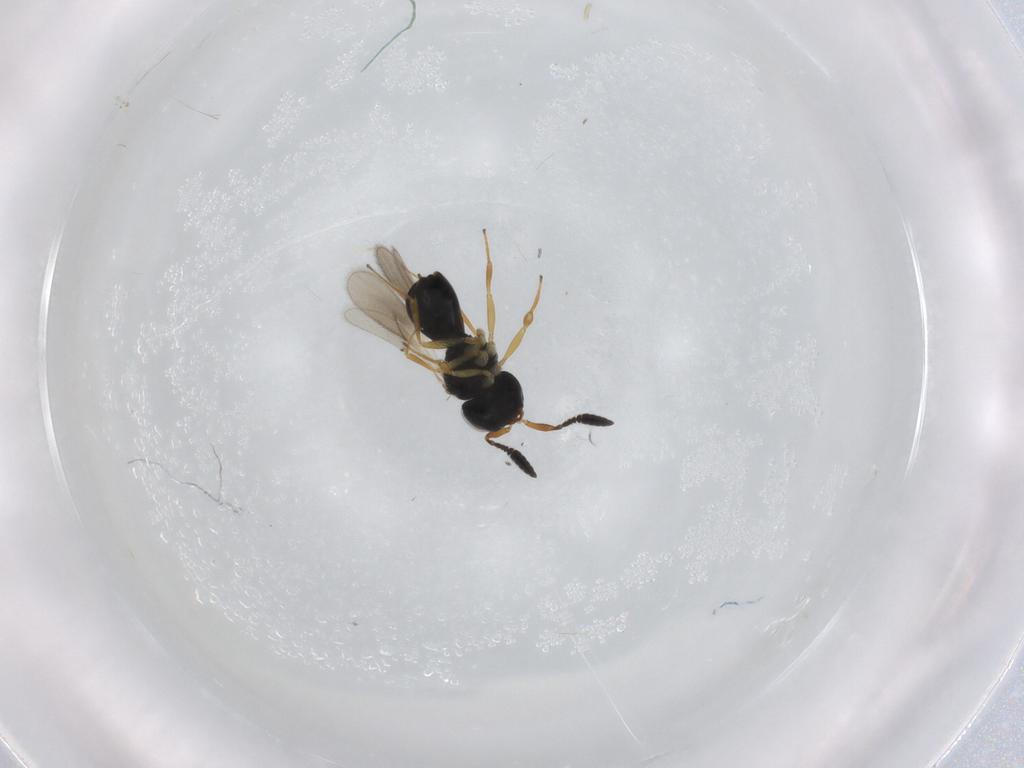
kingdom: Animalia
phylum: Arthropoda
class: Insecta
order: Hymenoptera
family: Scelionidae
